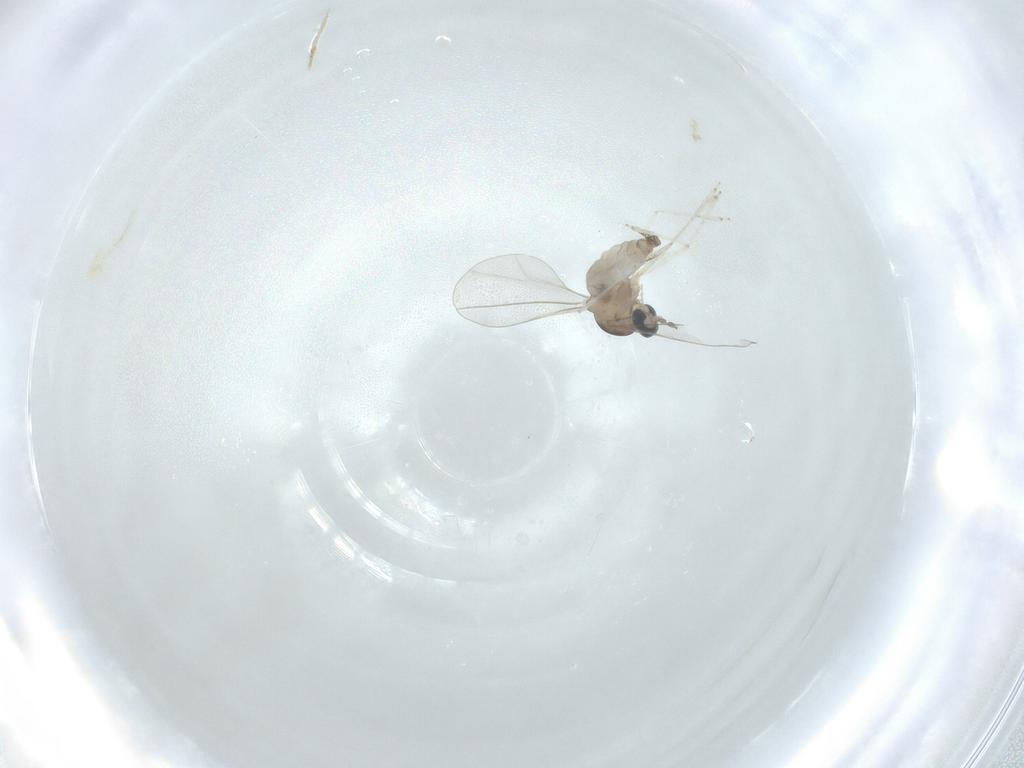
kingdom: Animalia
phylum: Arthropoda
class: Insecta
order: Diptera
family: Cecidomyiidae
